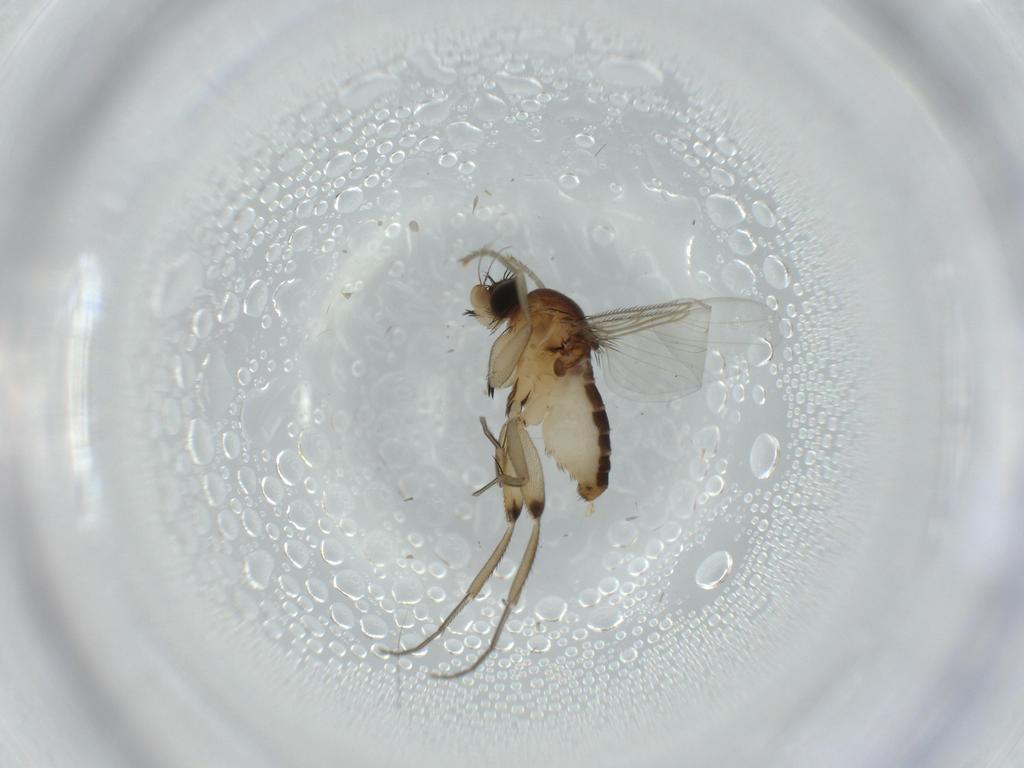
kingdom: Animalia
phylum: Arthropoda
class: Insecta
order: Diptera
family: Phoridae
